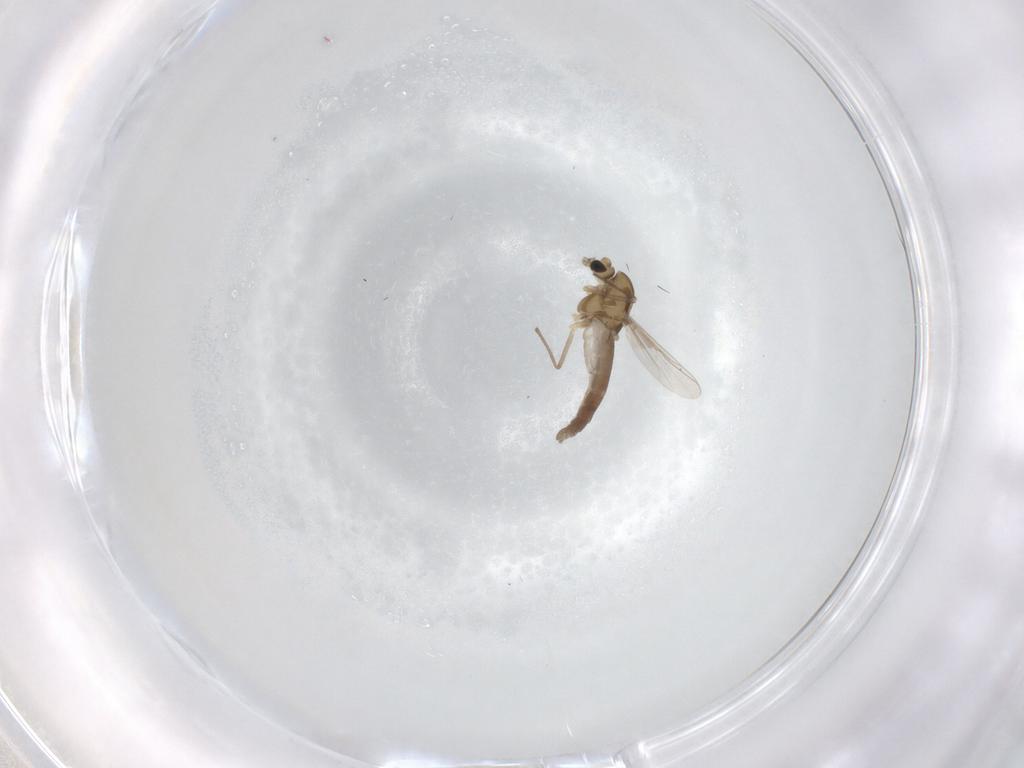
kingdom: Animalia
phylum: Arthropoda
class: Insecta
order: Diptera
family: Chironomidae
